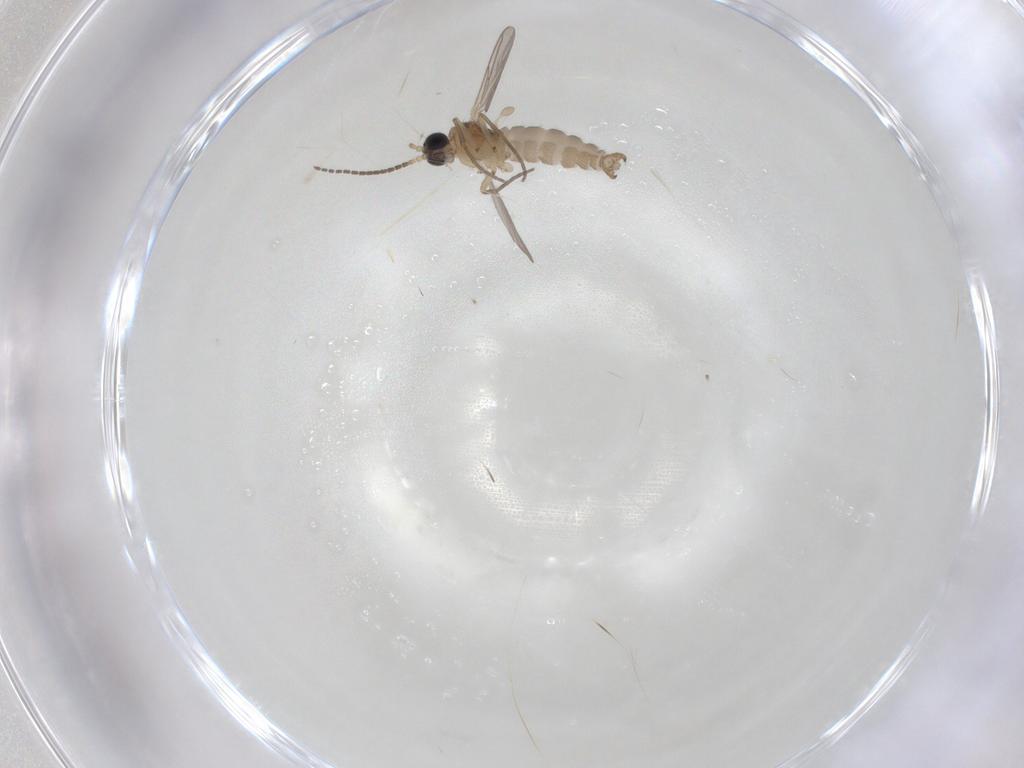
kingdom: Animalia
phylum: Arthropoda
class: Insecta
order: Diptera
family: Sciaridae
